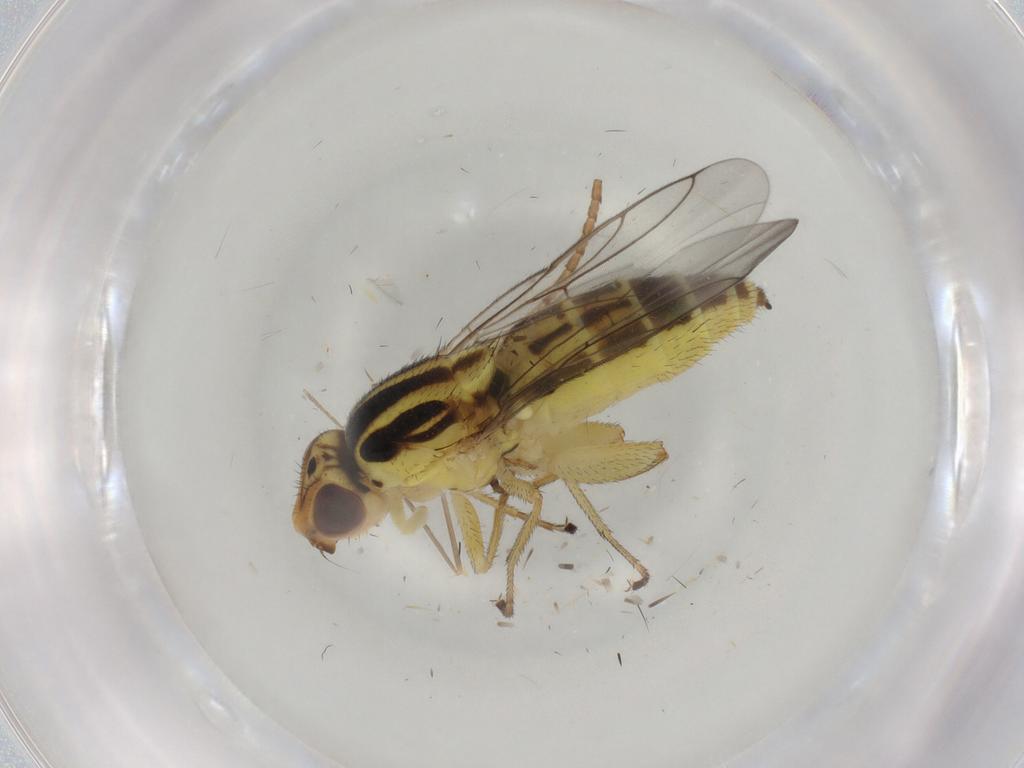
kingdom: Animalia
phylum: Arthropoda
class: Insecta
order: Diptera
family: Chloropidae
